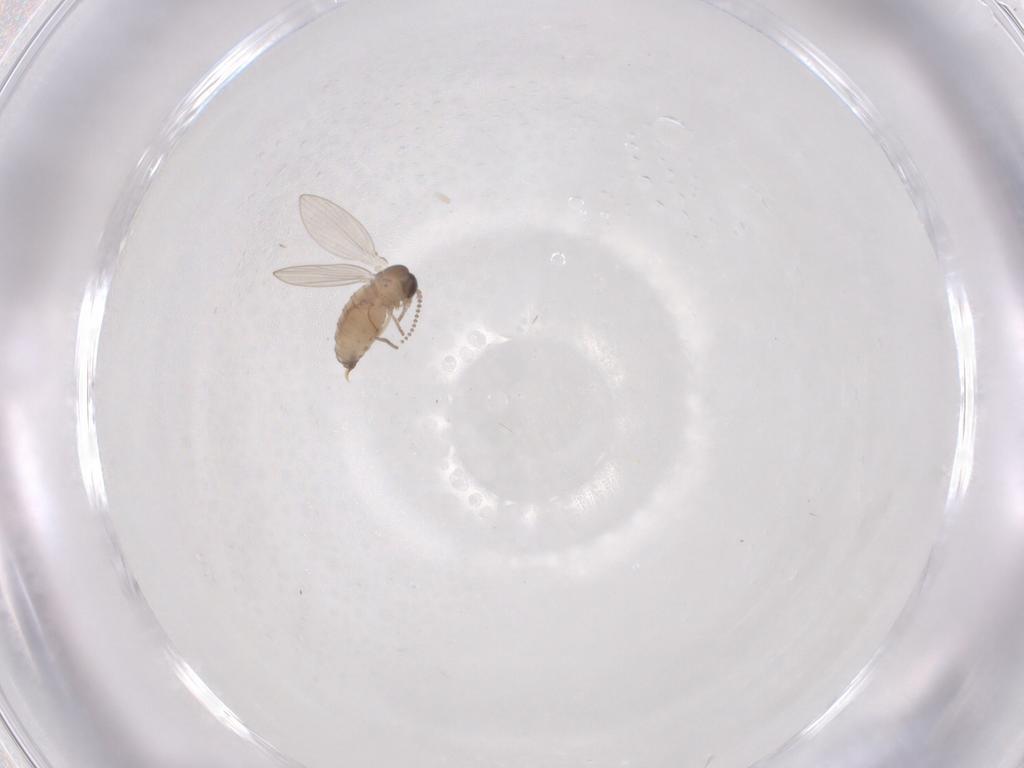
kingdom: Animalia
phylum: Arthropoda
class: Insecta
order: Diptera
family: Psychodidae
